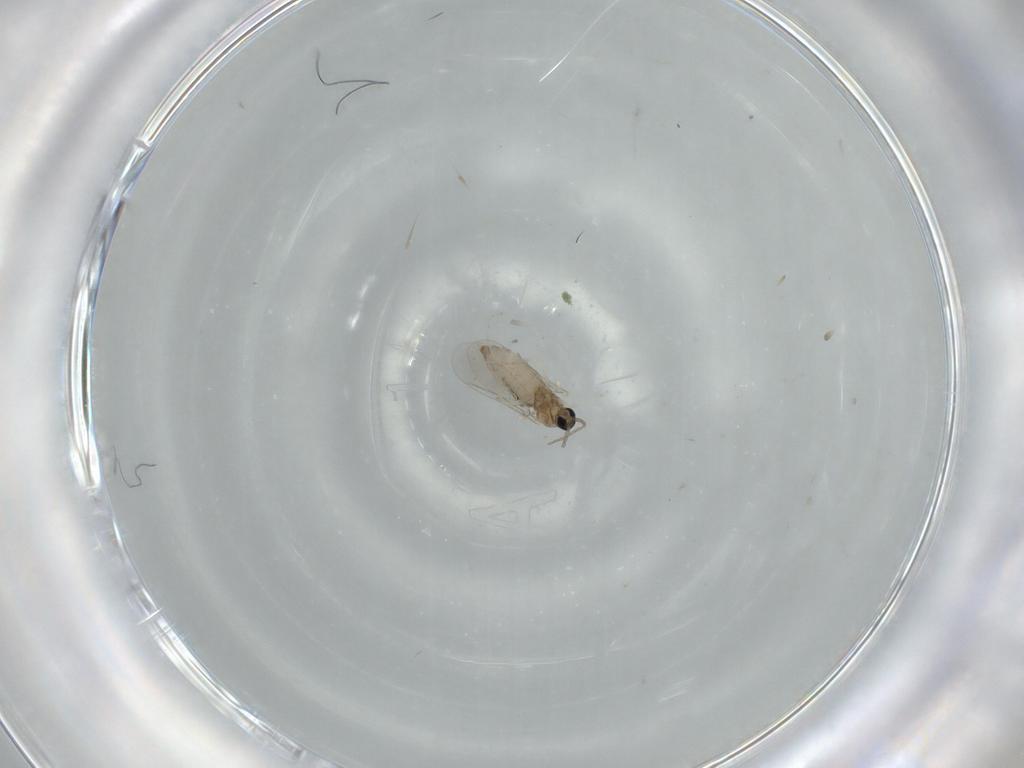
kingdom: Animalia
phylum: Arthropoda
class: Insecta
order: Diptera
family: Cecidomyiidae
